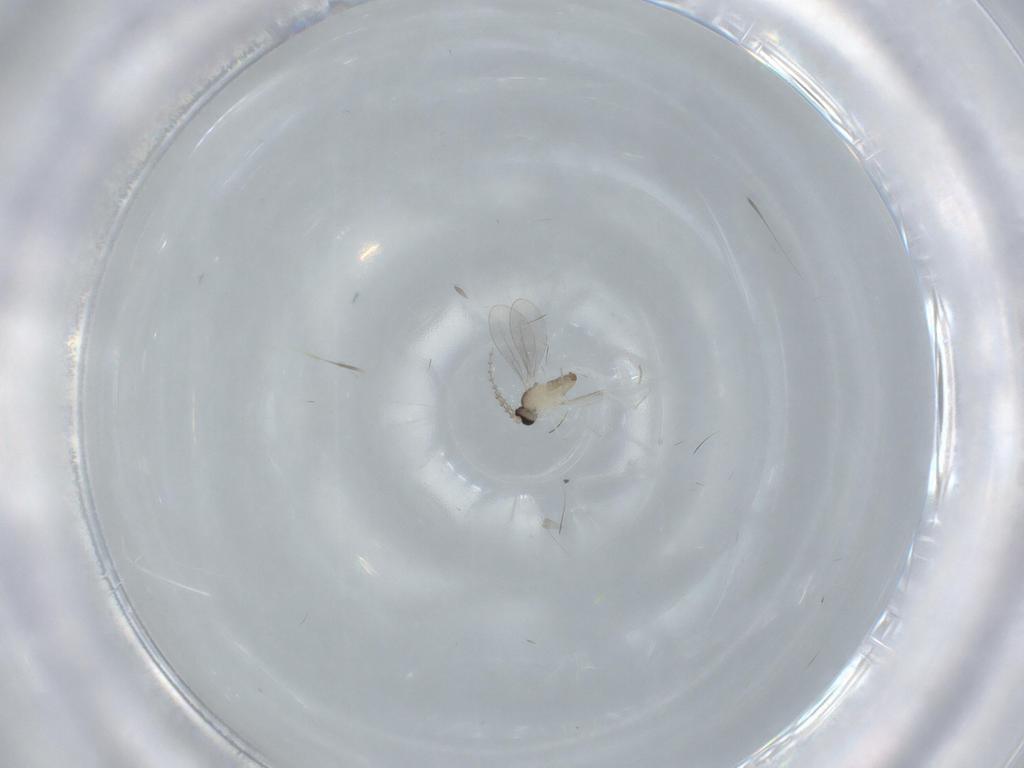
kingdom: Animalia
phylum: Arthropoda
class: Insecta
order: Diptera
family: Cecidomyiidae
